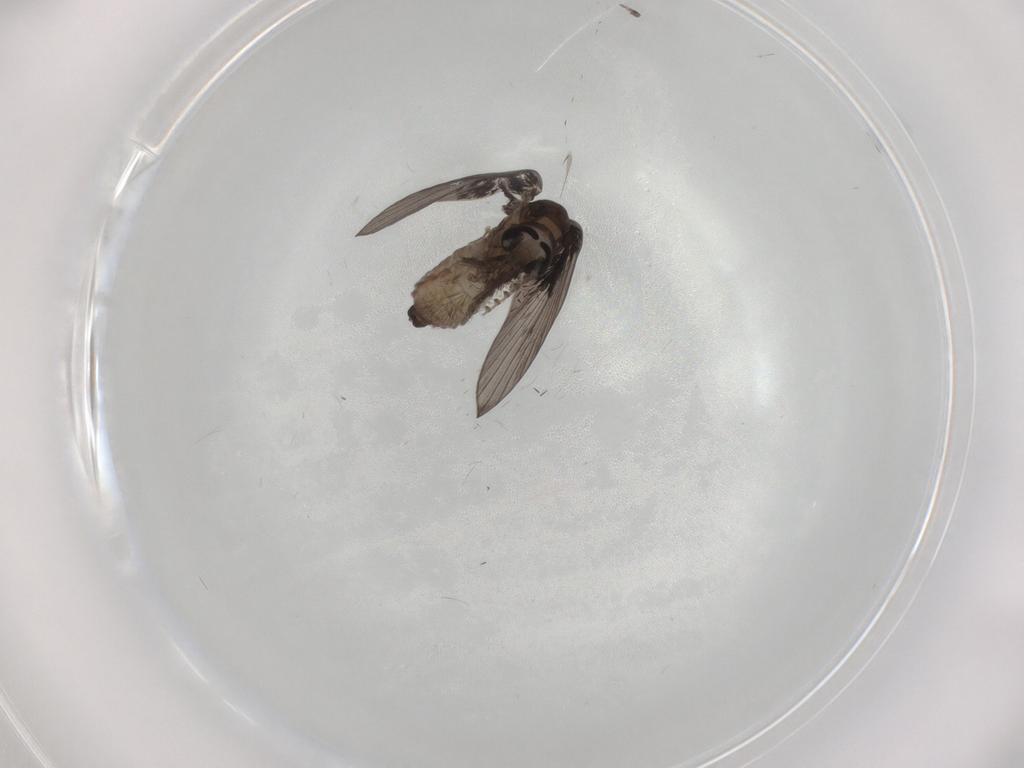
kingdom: Animalia
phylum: Arthropoda
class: Insecta
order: Diptera
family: Psychodidae
